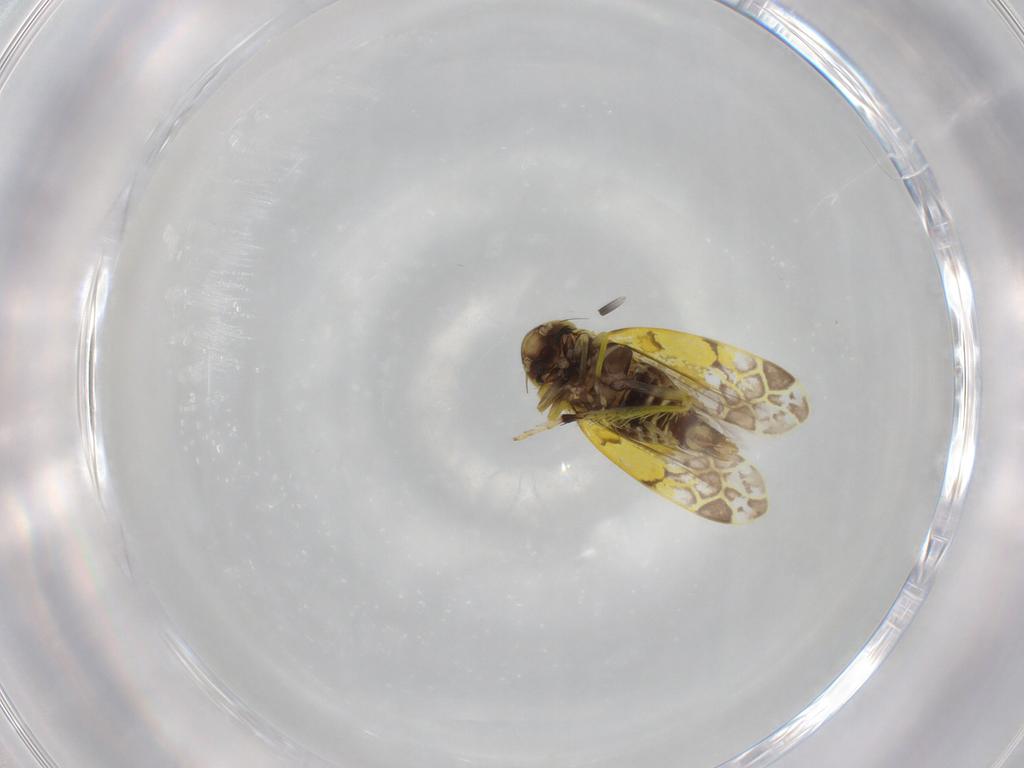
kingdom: Animalia
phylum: Arthropoda
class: Insecta
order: Hemiptera
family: Cicadellidae
